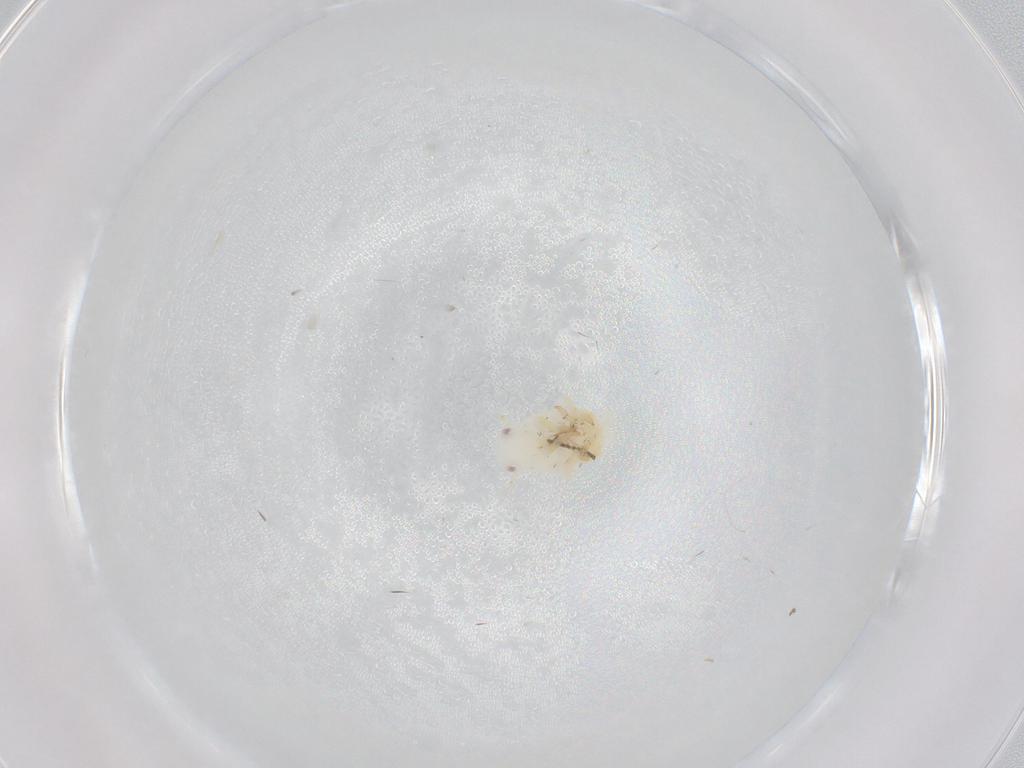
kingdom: Animalia
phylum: Arthropoda
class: Insecta
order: Hemiptera
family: Flatidae
